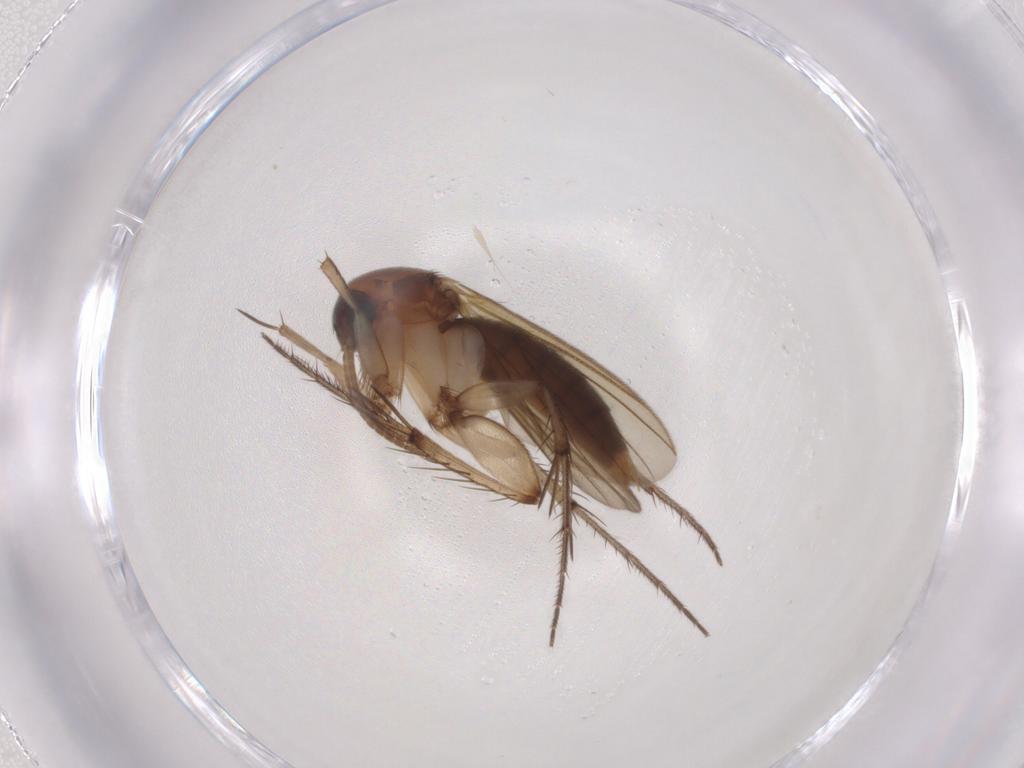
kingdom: Animalia
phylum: Arthropoda
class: Insecta
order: Diptera
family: Mycetophilidae
